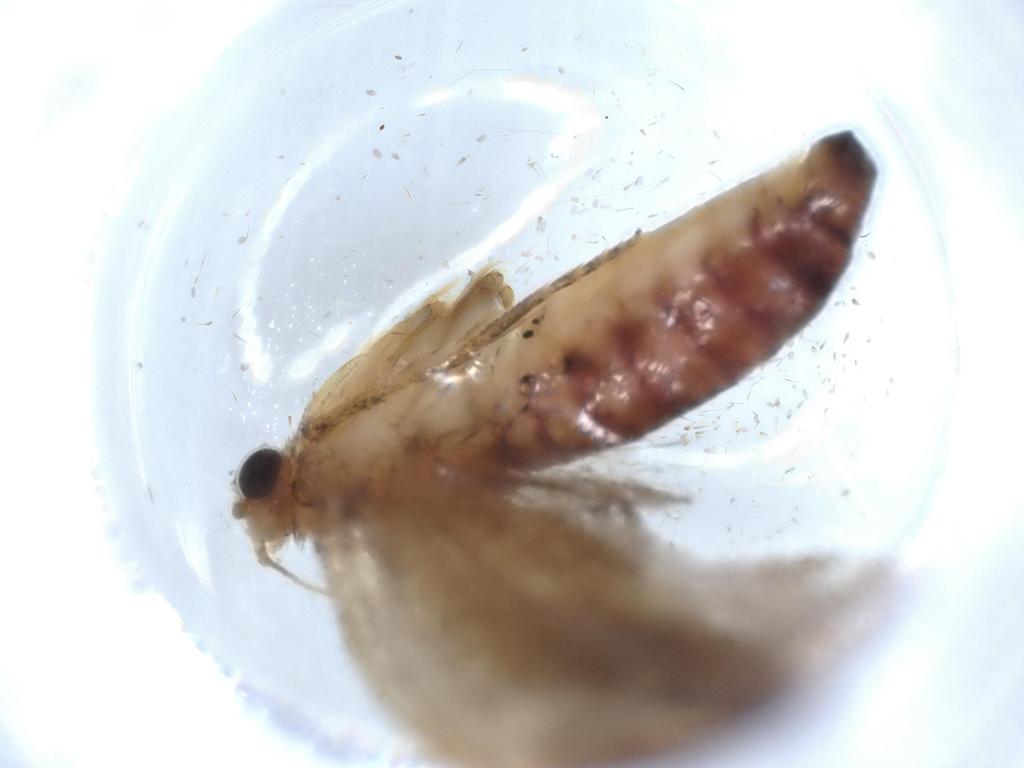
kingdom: Animalia
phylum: Arthropoda
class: Insecta
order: Lepidoptera
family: Tineidae
